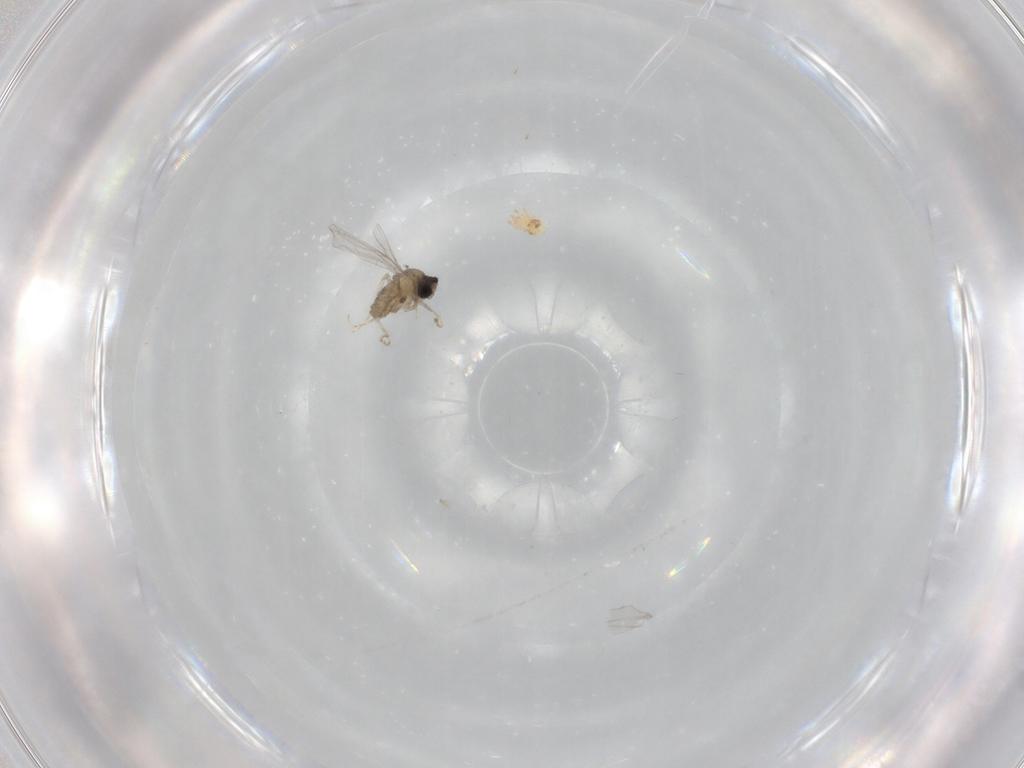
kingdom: Animalia
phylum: Arthropoda
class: Insecta
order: Diptera
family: Cecidomyiidae
